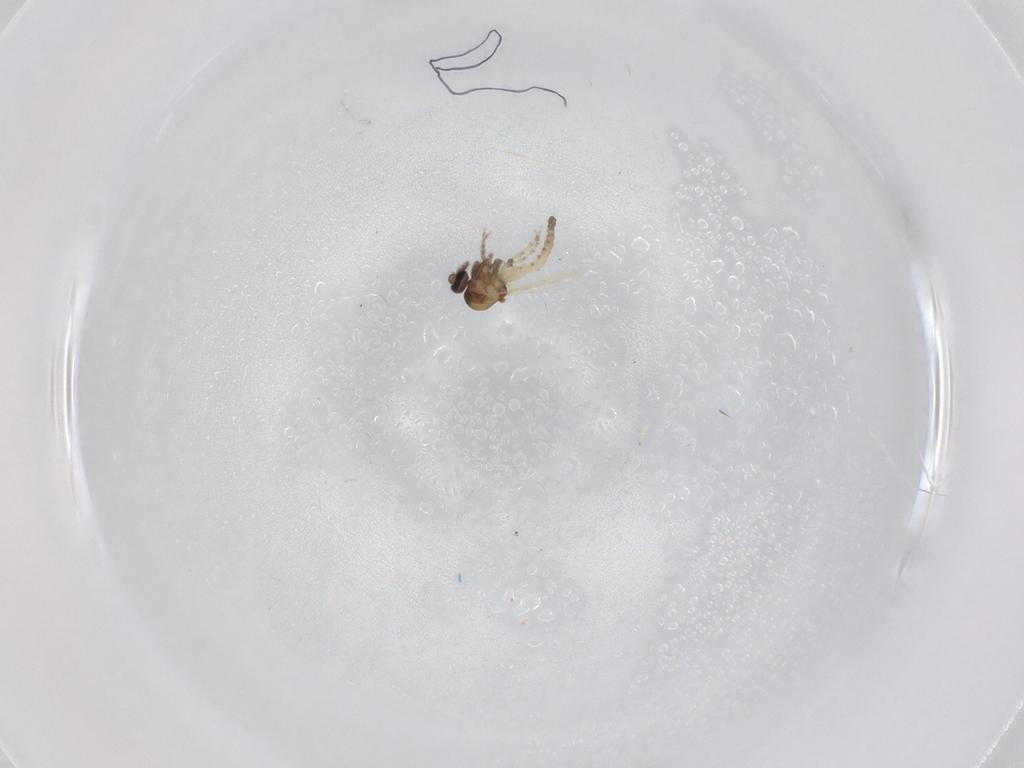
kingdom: Animalia
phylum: Arthropoda
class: Insecta
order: Diptera
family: Ceratopogonidae
